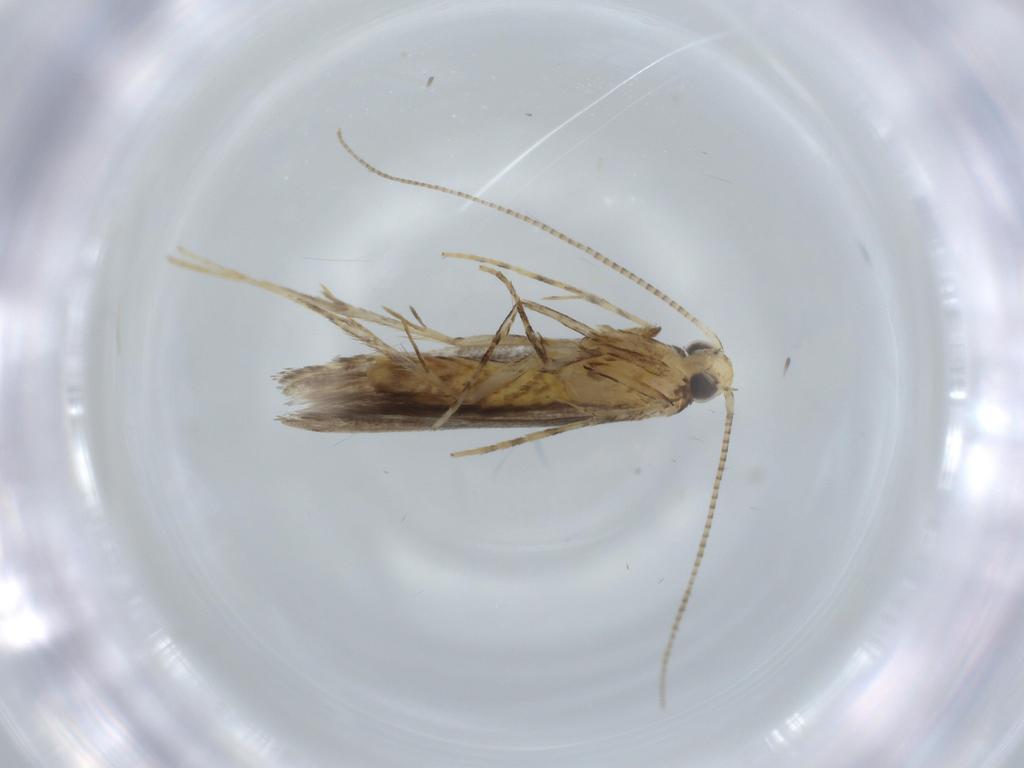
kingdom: Animalia
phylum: Arthropoda
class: Insecta
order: Lepidoptera
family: Gracillariidae
